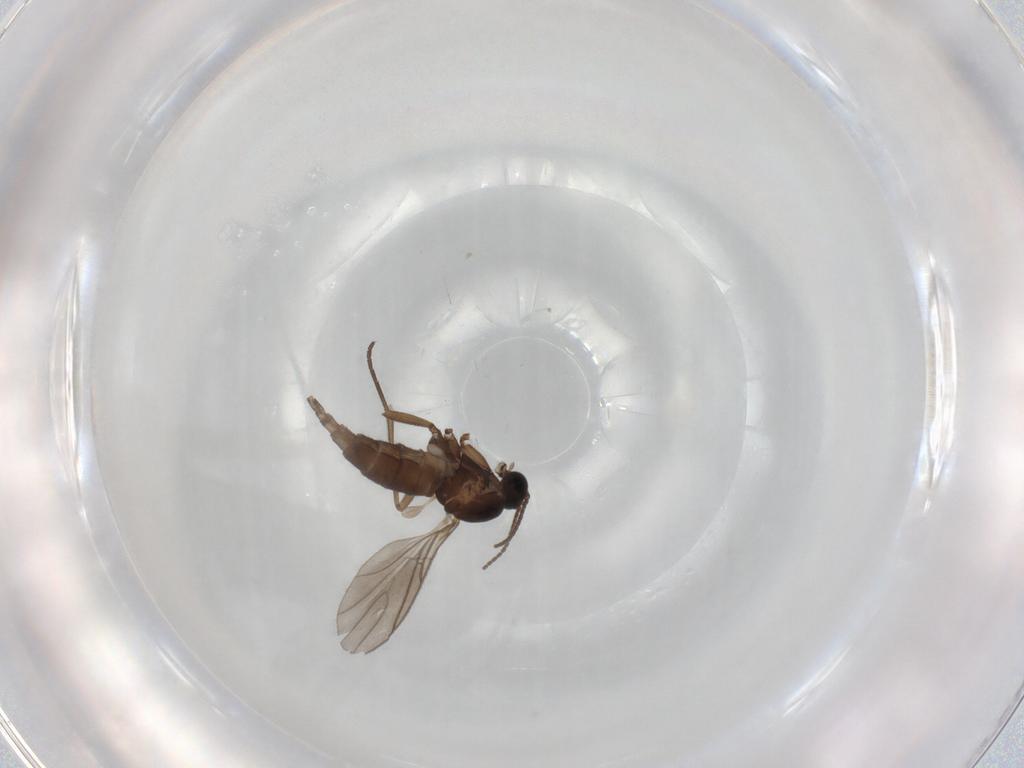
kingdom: Animalia
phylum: Arthropoda
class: Insecta
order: Diptera
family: Sciaridae
